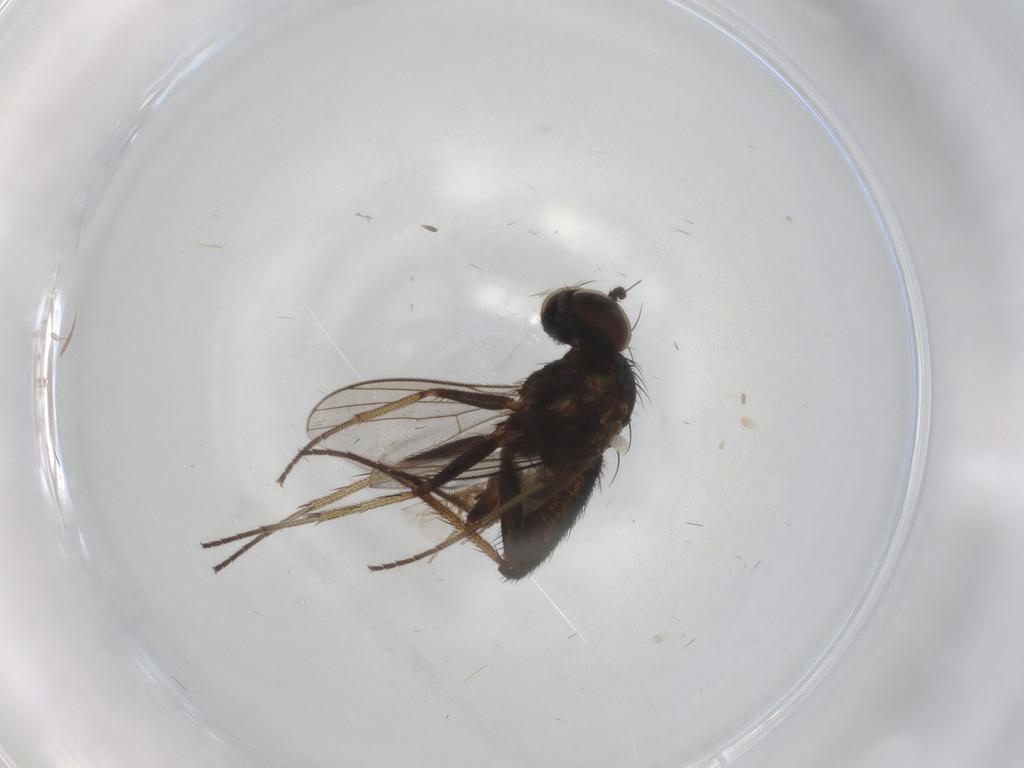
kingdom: Animalia
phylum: Arthropoda
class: Insecta
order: Diptera
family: Dolichopodidae
